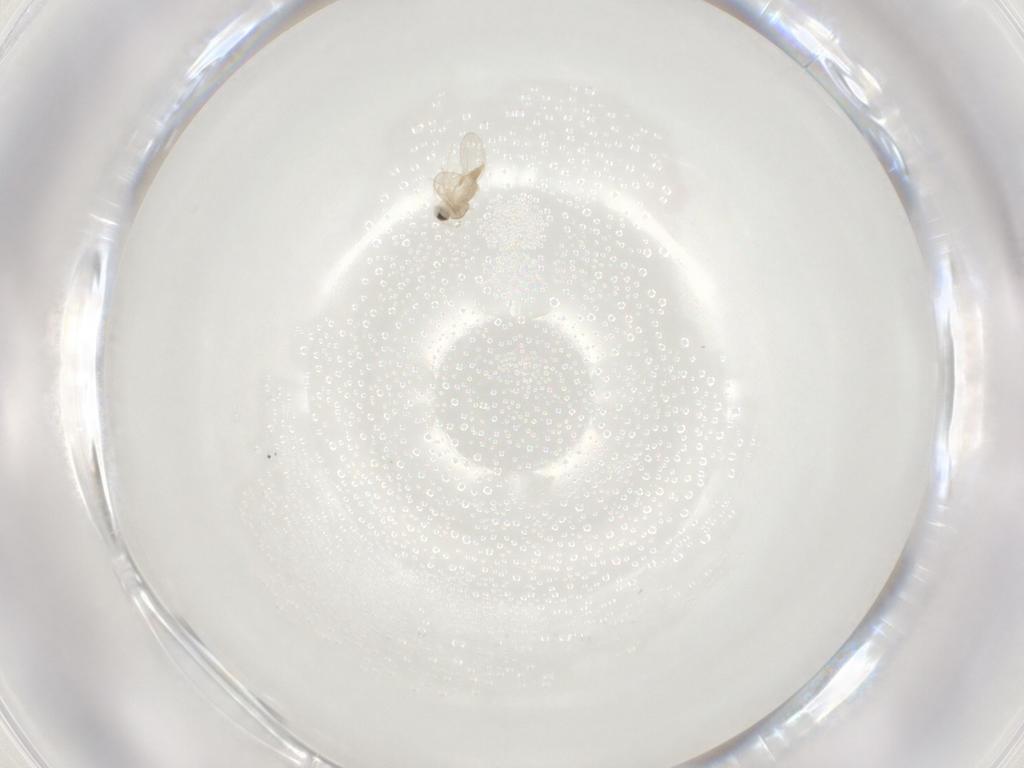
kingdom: Animalia
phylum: Arthropoda
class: Insecta
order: Diptera
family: Cecidomyiidae
